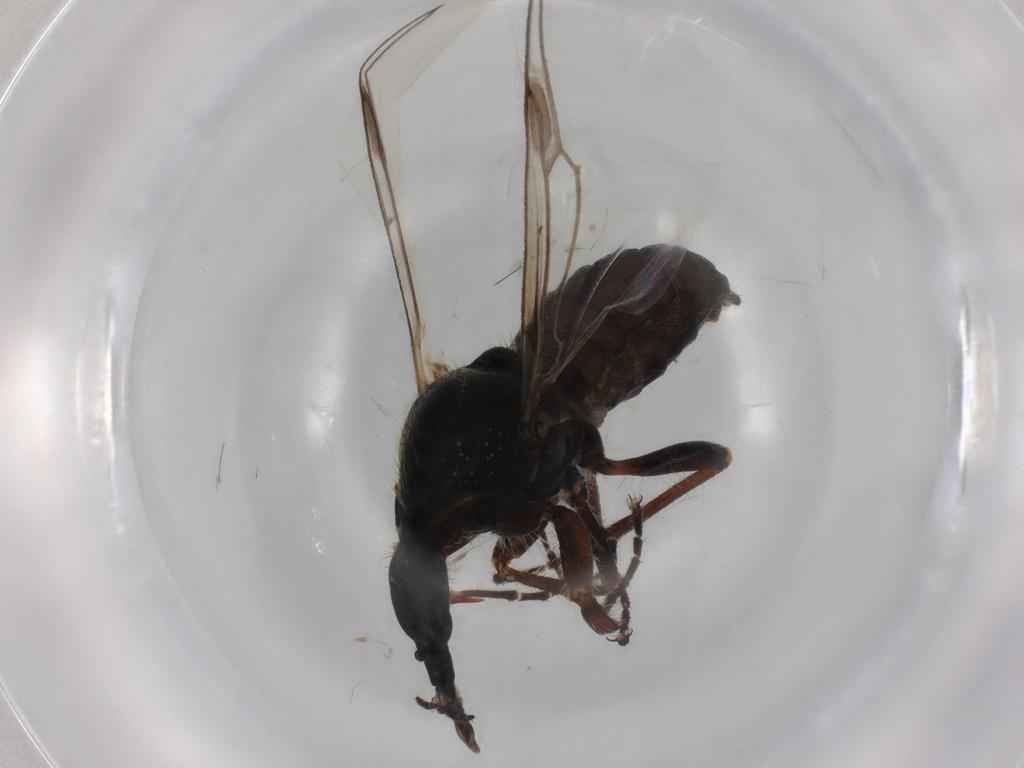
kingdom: Animalia
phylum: Arthropoda
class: Insecta
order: Diptera
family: Bibionidae
